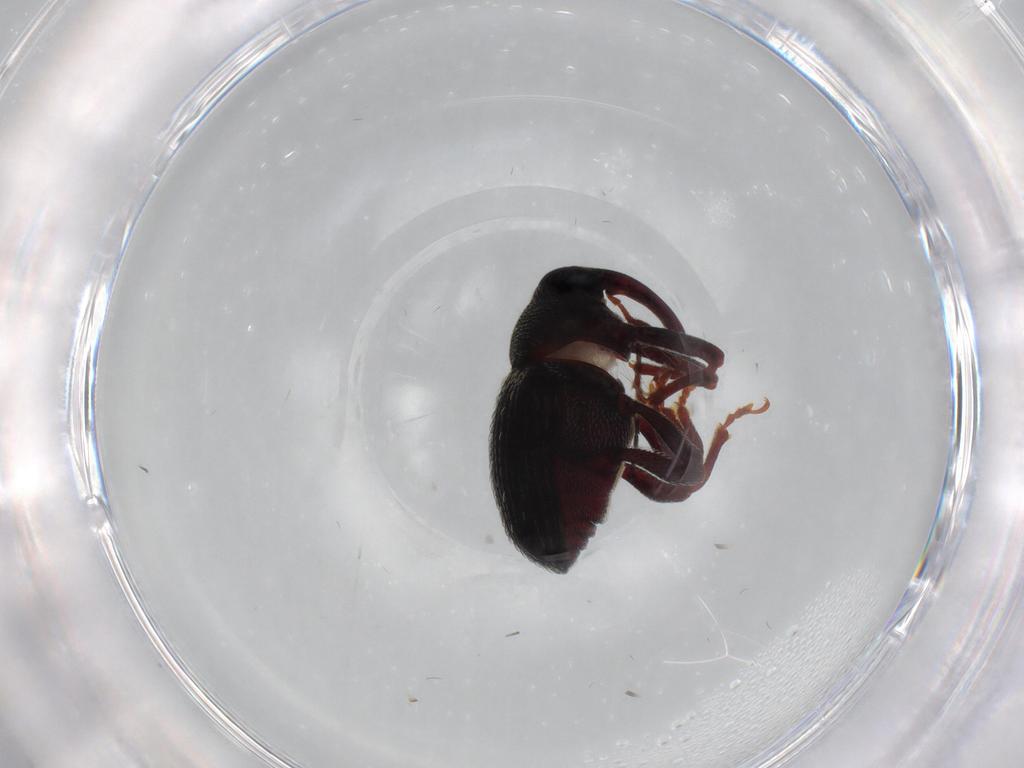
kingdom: Animalia
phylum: Arthropoda
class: Insecta
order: Coleoptera
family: Curculionidae
